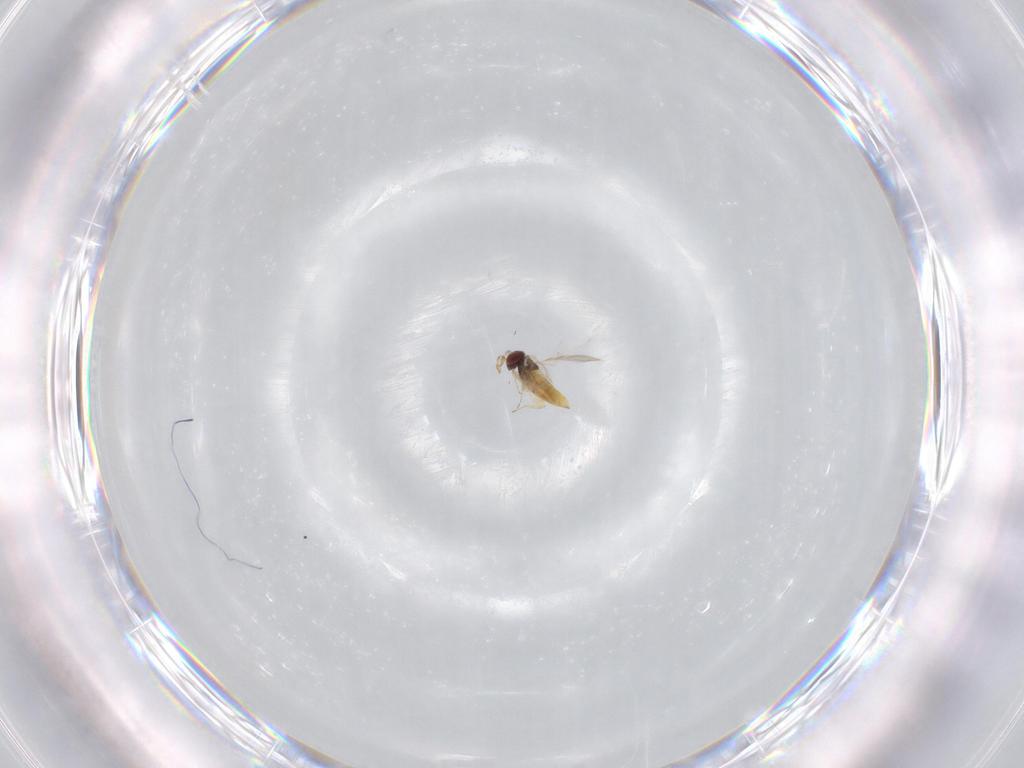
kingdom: Animalia
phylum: Arthropoda
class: Insecta
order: Hymenoptera
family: Trichogrammatidae
